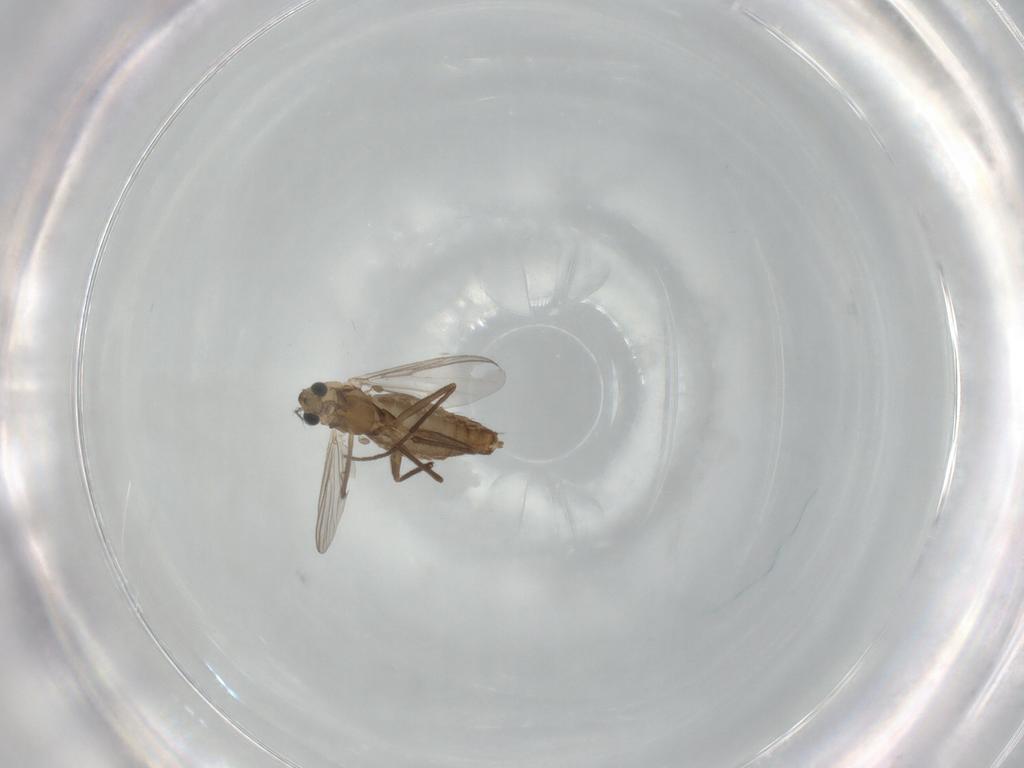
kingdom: Animalia
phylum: Arthropoda
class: Insecta
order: Diptera
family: Chironomidae
